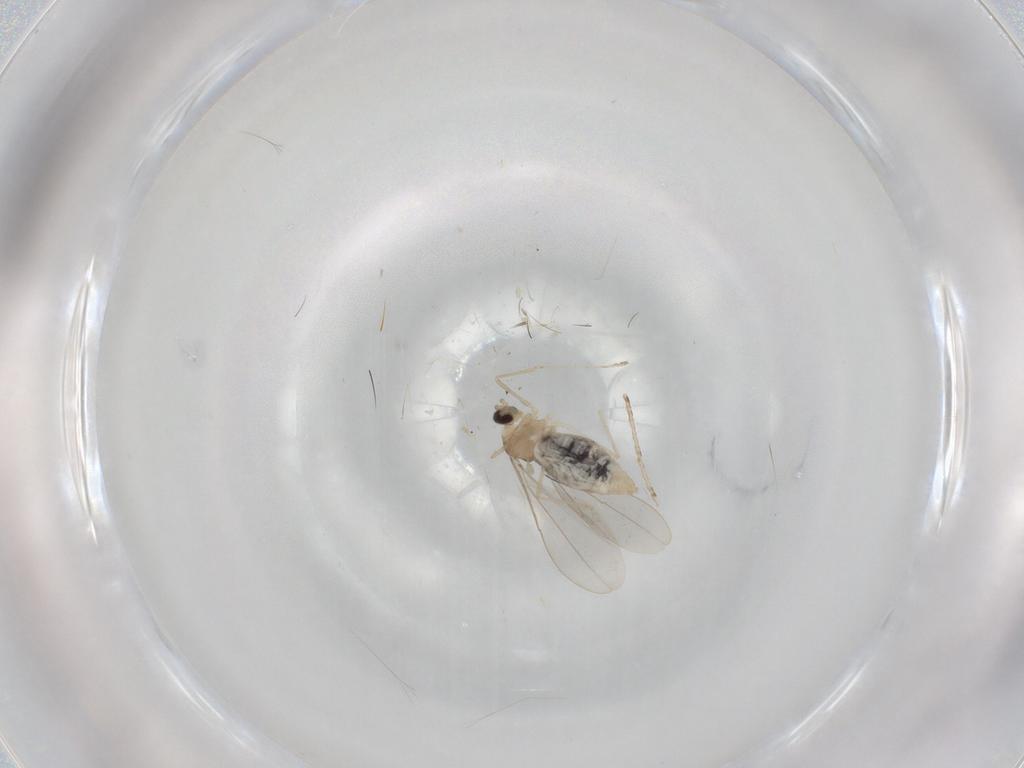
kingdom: Animalia
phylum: Arthropoda
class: Insecta
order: Diptera
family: Cecidomyiidae
